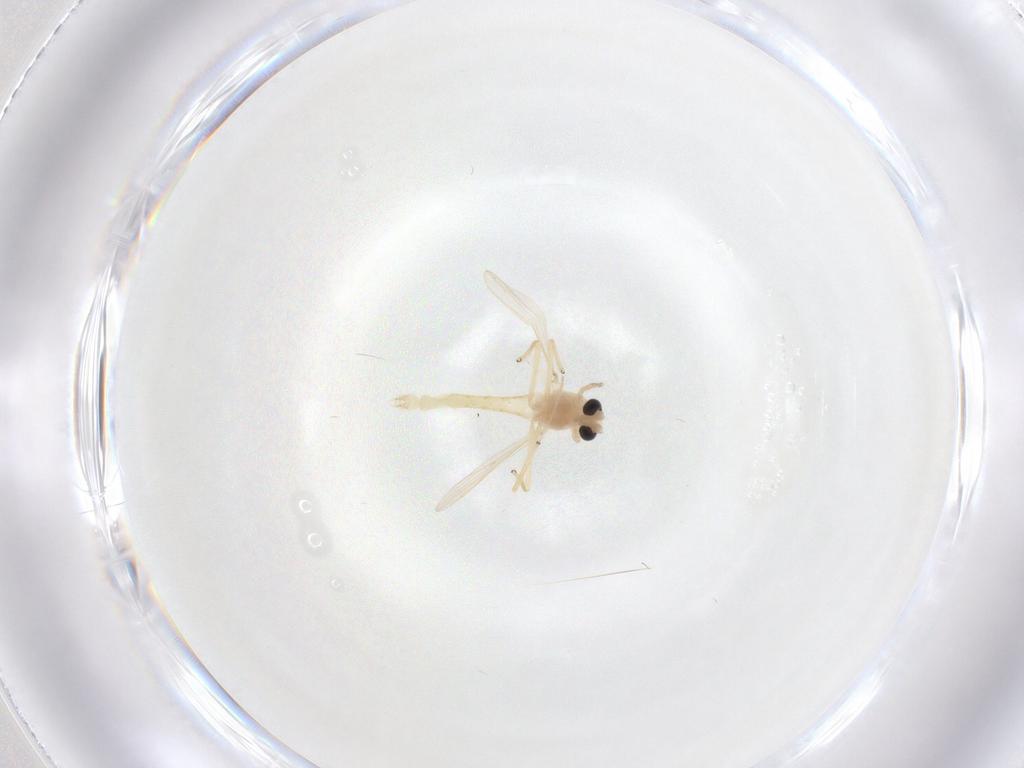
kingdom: Animalia
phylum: Arthropoda
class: Insecta
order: Diptera
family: Chironomidae
